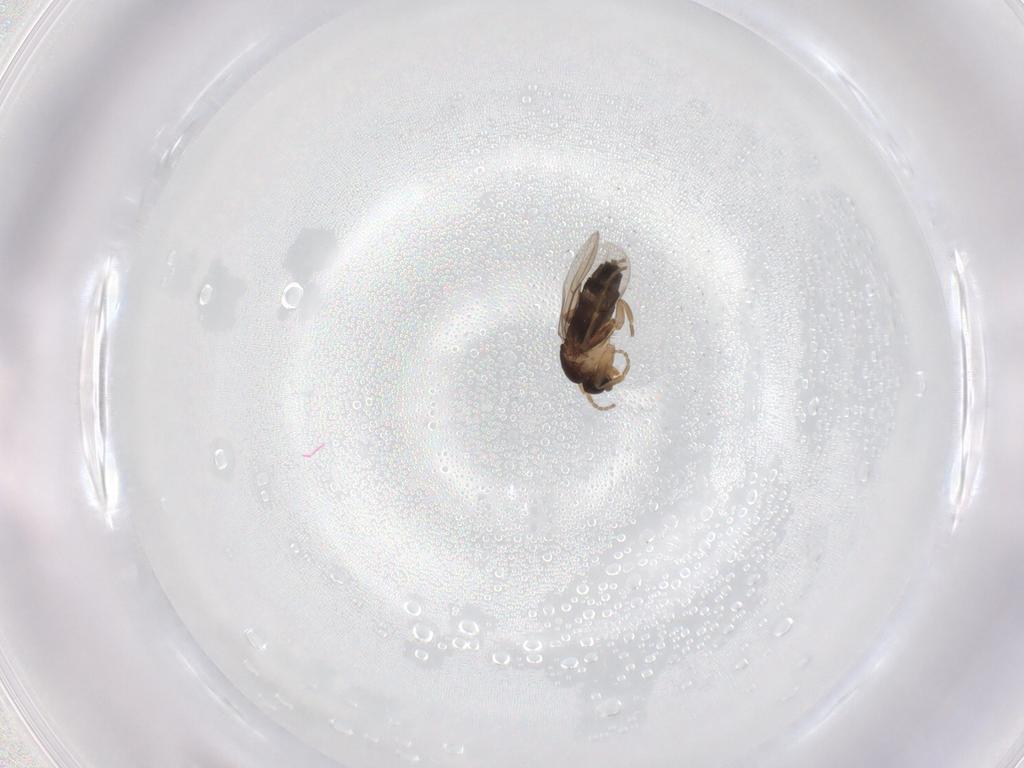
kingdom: Animalia
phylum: Arthropoda
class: Insecta
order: Diptera
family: Phoridae
